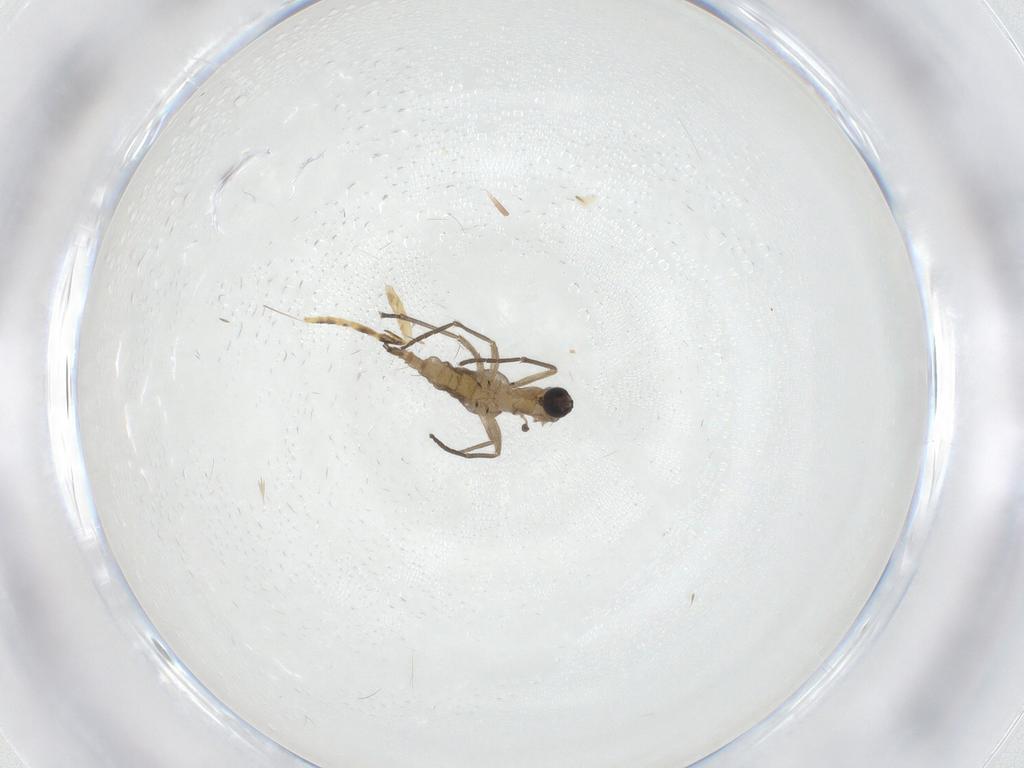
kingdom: Animalia
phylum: Arthropoda
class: Insecta
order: Diptera
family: Sciaridae
